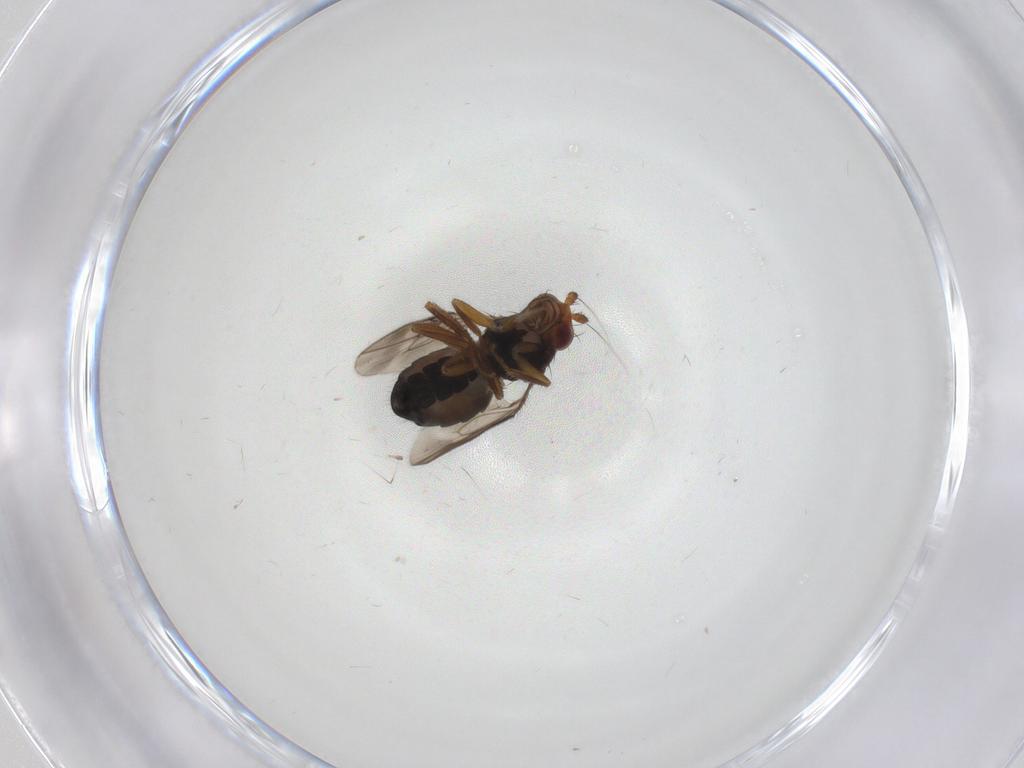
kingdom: Animalia
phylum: Arthropoda
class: Insecta
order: Diptera
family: Sphaeroceridae
